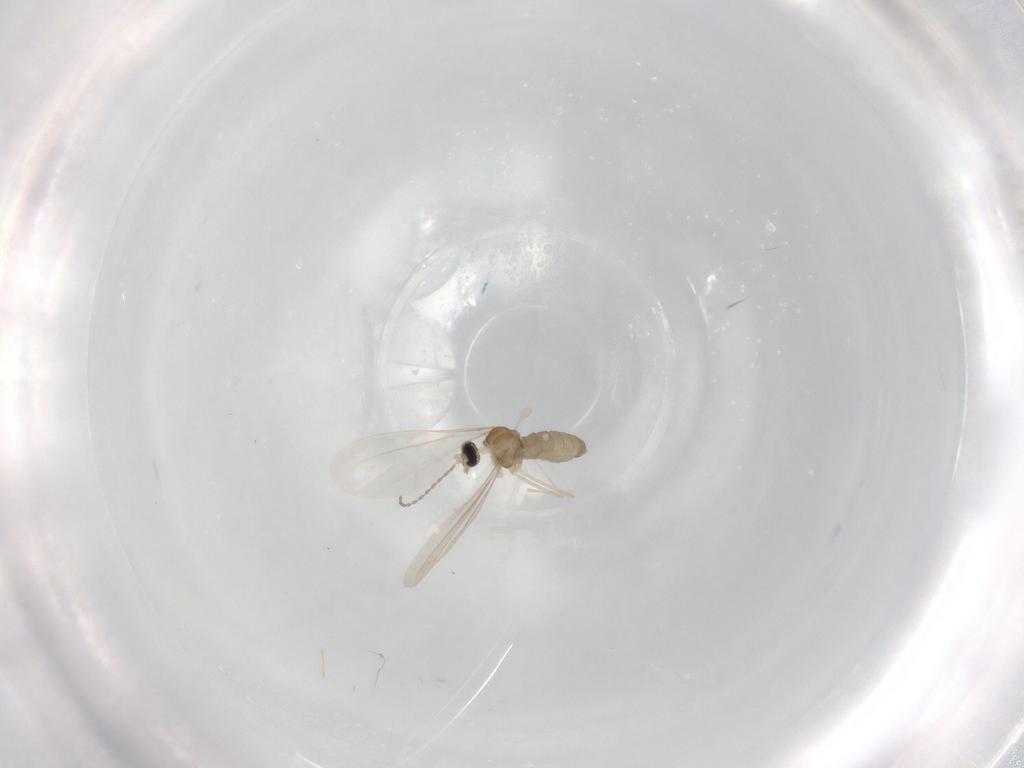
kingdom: Animalia
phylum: Arthropoda
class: Insecta
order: Diptera
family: Cecidomyiidae
